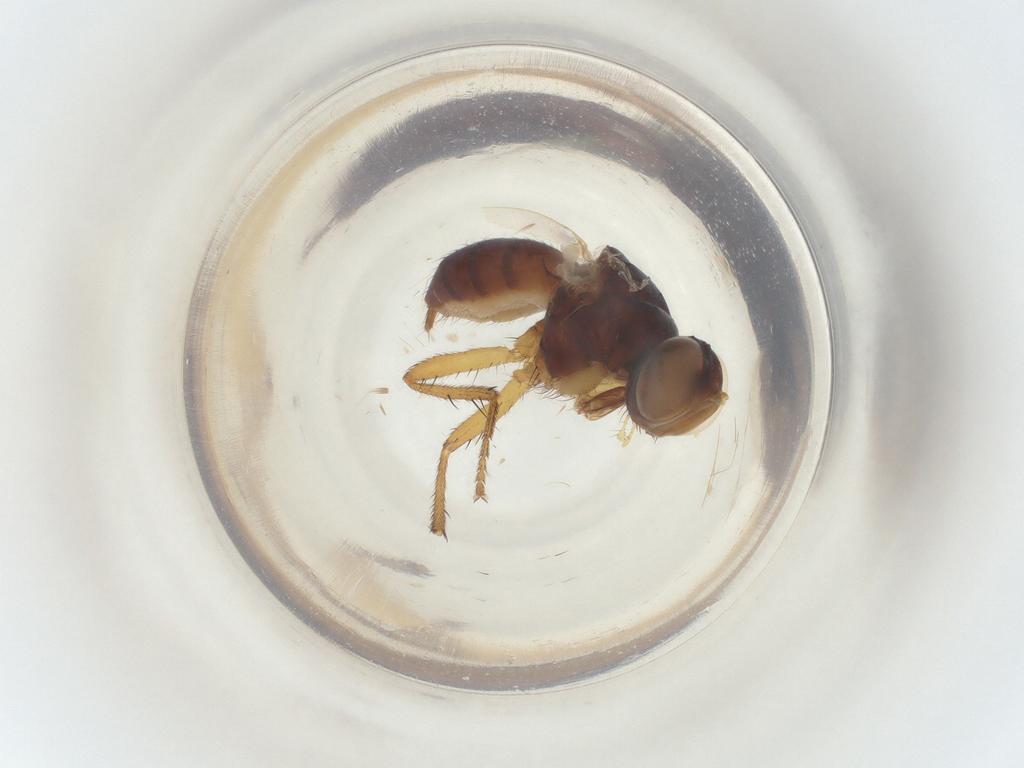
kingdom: Animalia
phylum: Arthropoda
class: Insecta
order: Diptera
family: Muscidae
